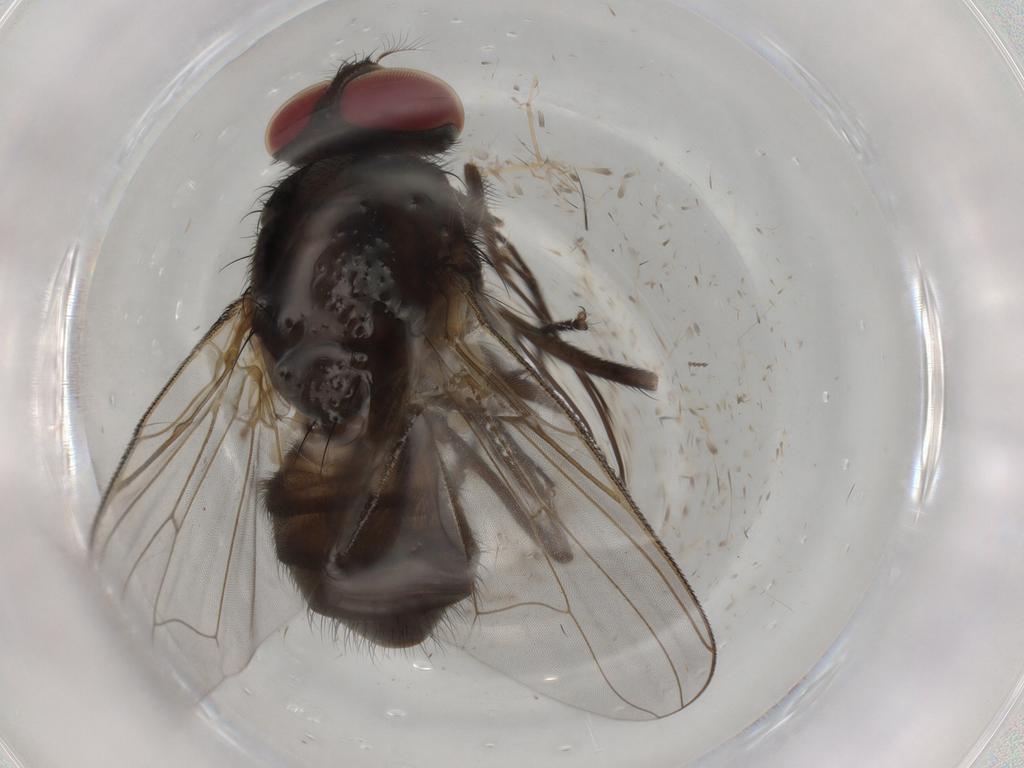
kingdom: Animalia
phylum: Arthropoda
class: Insecta
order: Diptera
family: Muscidae
